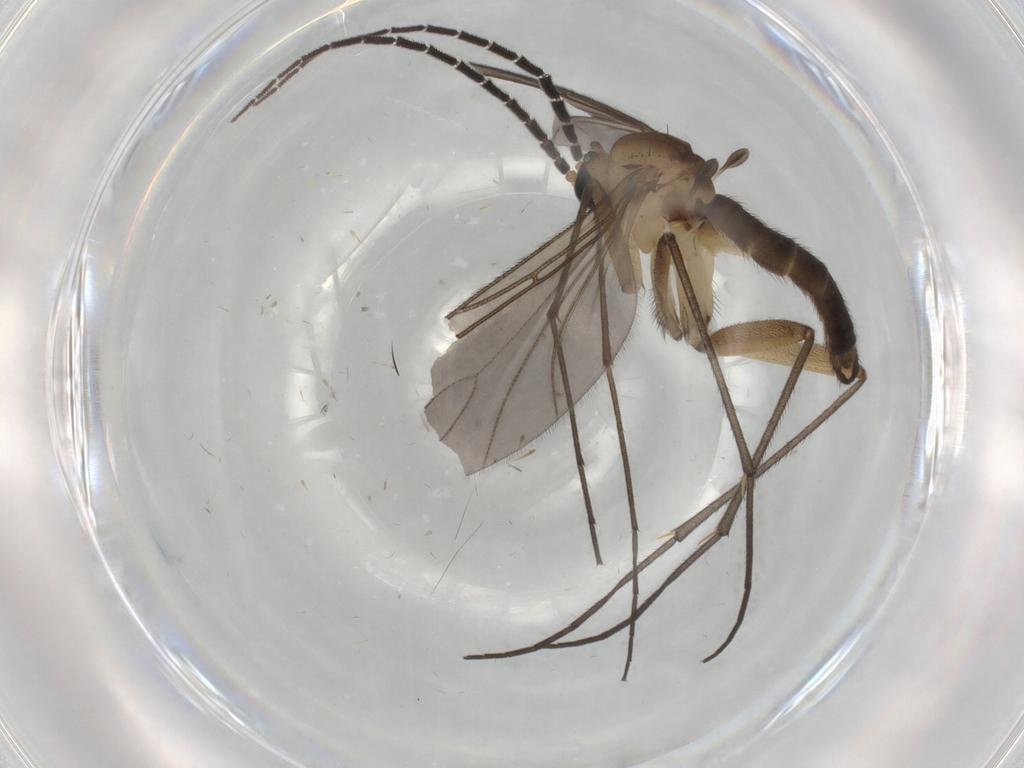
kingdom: Animalia
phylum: Arthropoda
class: Insecta
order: Diptera
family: Sciaridae
